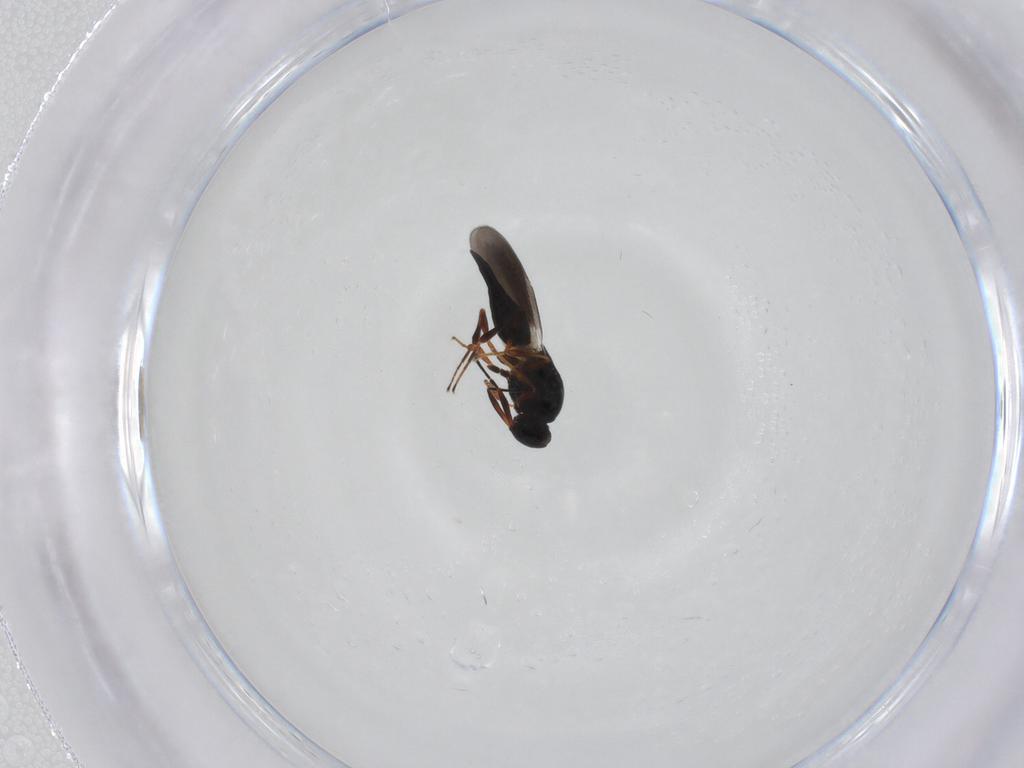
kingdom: Animalia
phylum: Arthropoda
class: Insecta
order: Hymenoptera
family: Platygastridae
